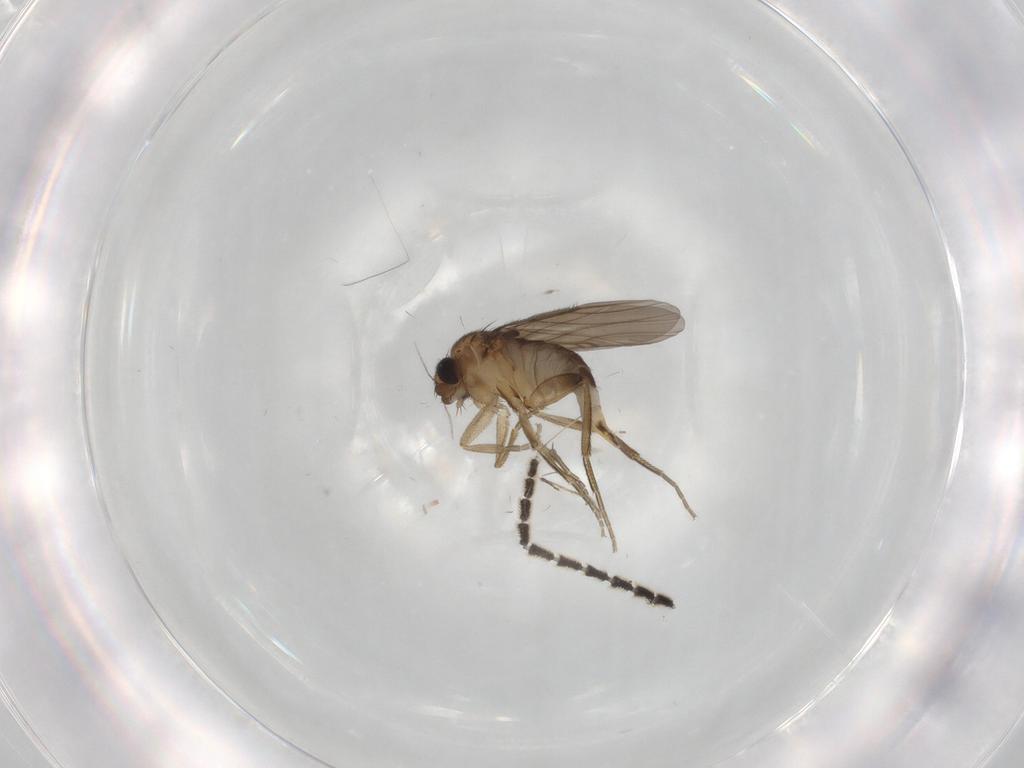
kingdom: Animalia
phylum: Arthropoda
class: Insecta
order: Diptera
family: Phoridae
